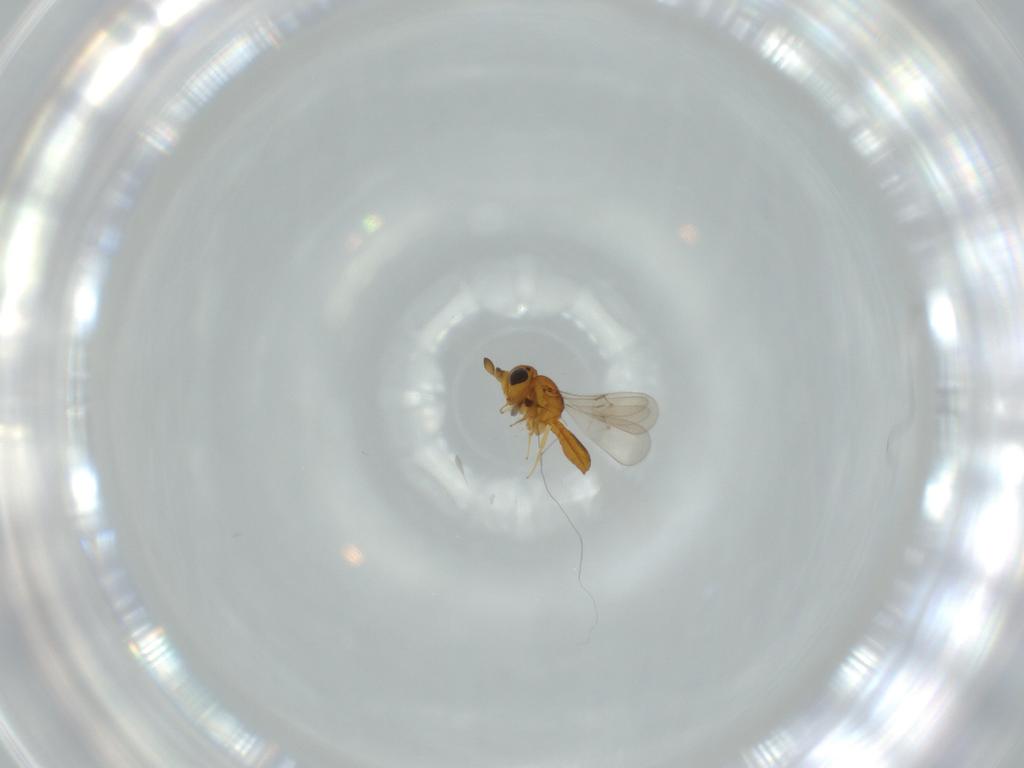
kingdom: Animalia
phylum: Arthropoda
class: Insecta
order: Hymenoptera
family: Scelionidae
